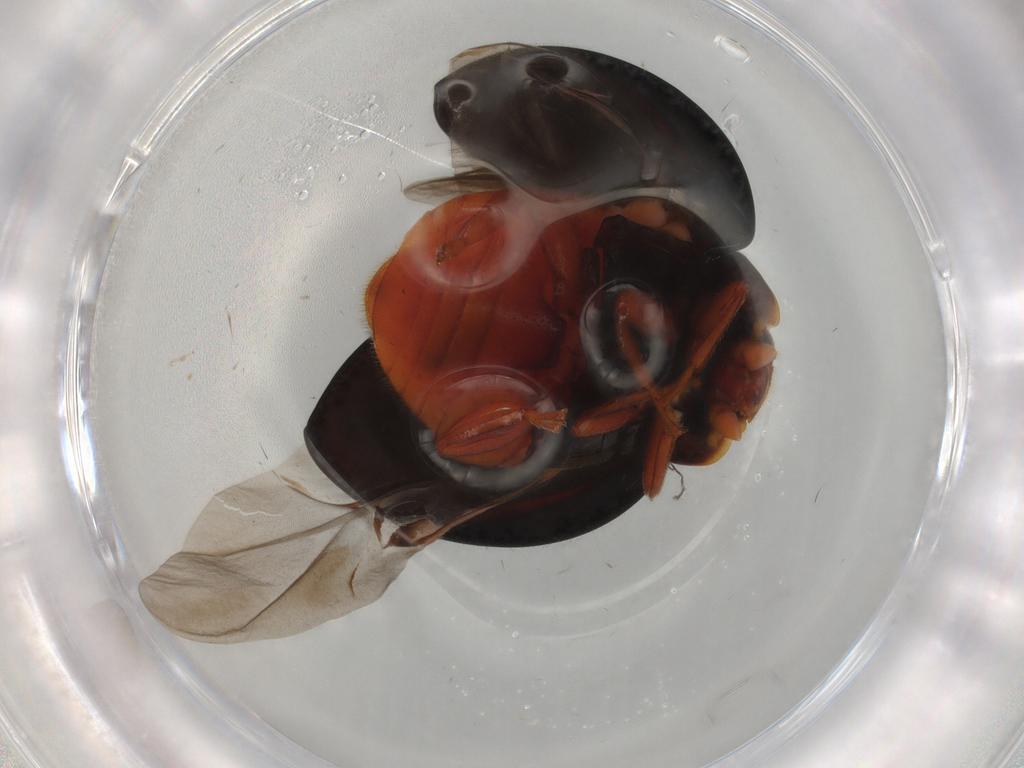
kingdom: Animalia
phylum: Arthropoda
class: Insecta
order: Coleoptera
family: Coccinellidae
